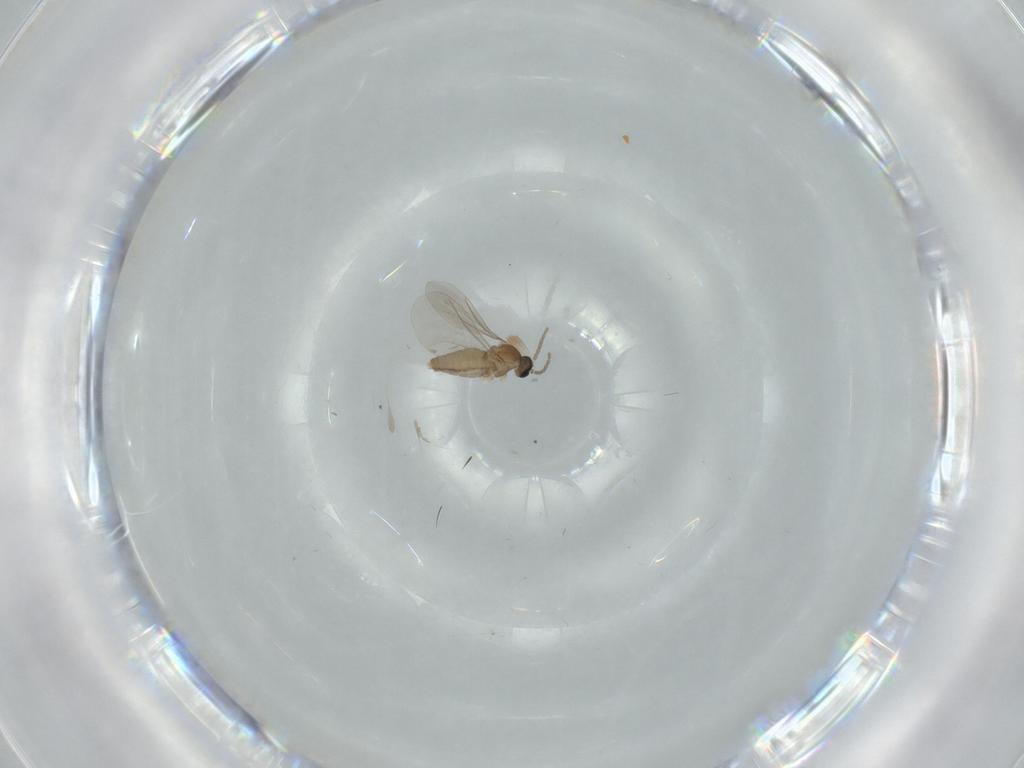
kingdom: Animalia
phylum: Arthropoda
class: Insecta
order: Diptera
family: Cecidomyiidae
